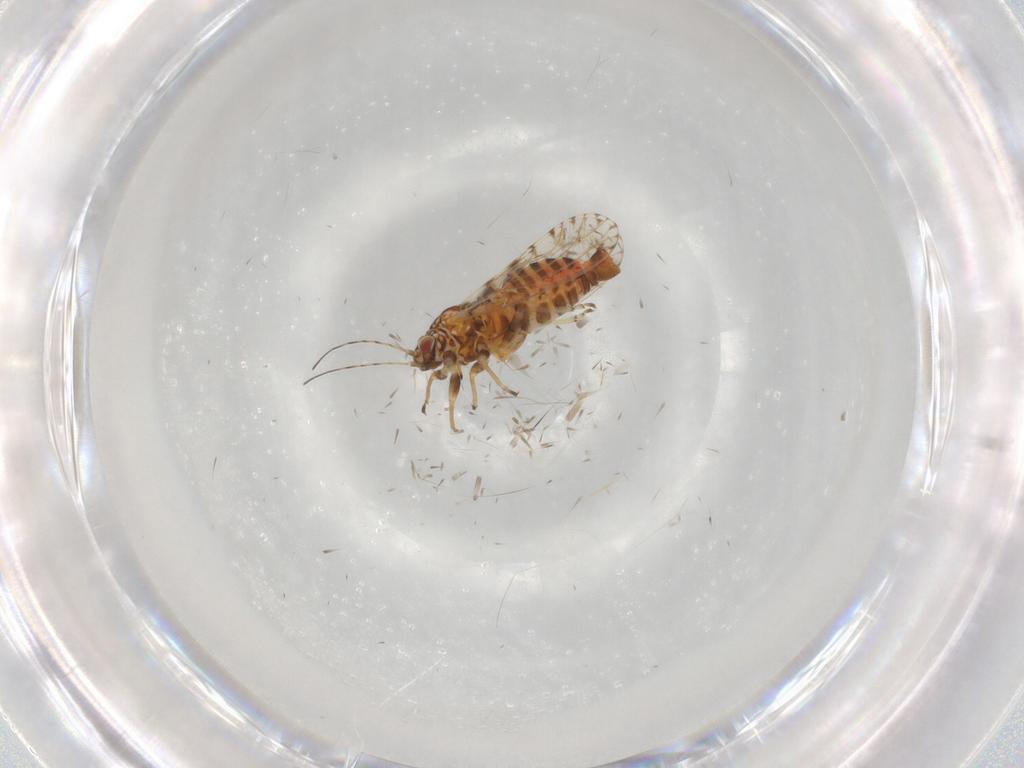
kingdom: Animalia
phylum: Arthropoda
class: Insecta
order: Hemiptera
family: Psyllidae
